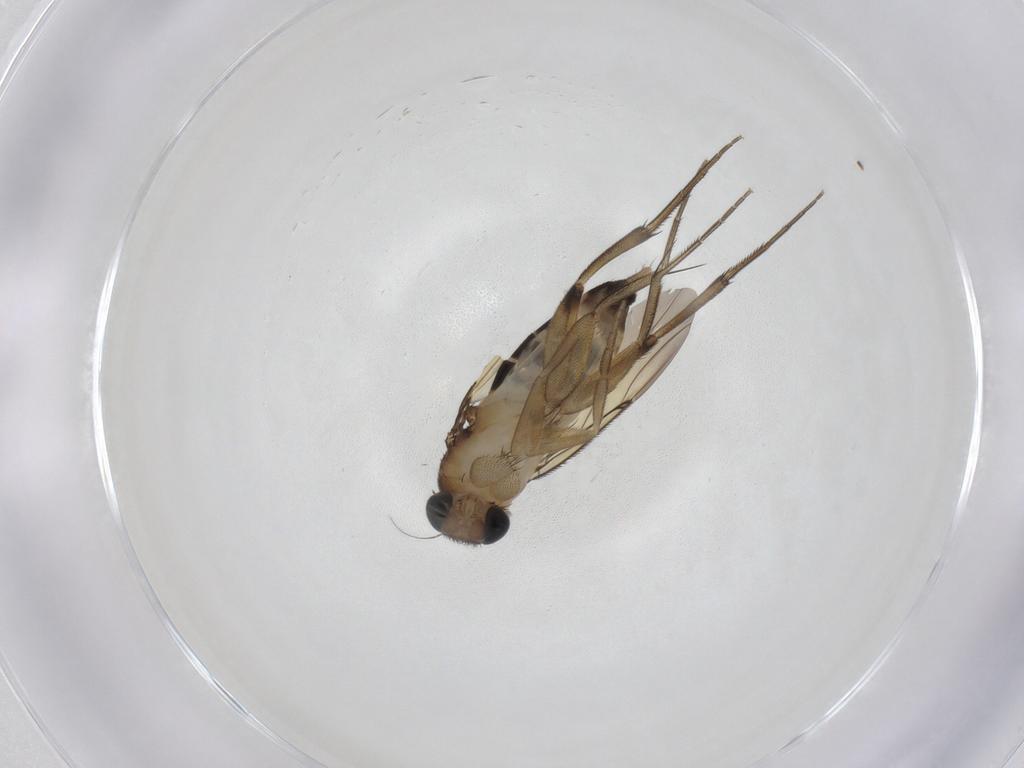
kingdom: Animalia
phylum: Arthropoda
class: Insecta
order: Diptera
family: Phoridae
